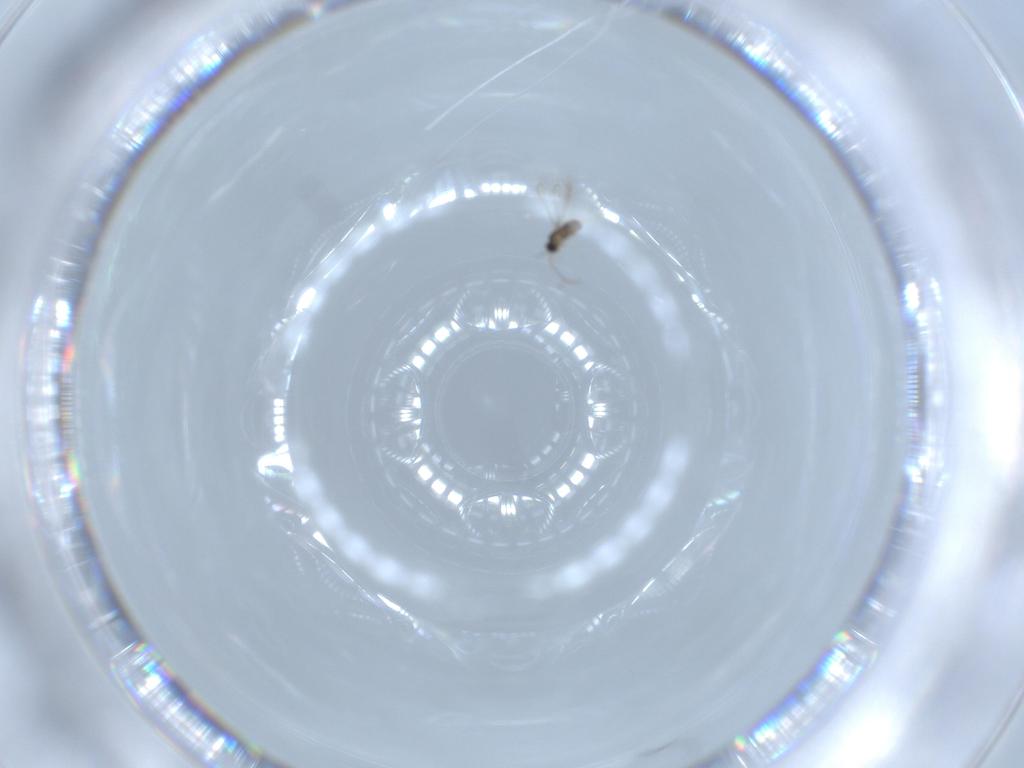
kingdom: Animalia
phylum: Arthropoda
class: Insecta
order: Hymenoptera
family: Mymaridae
